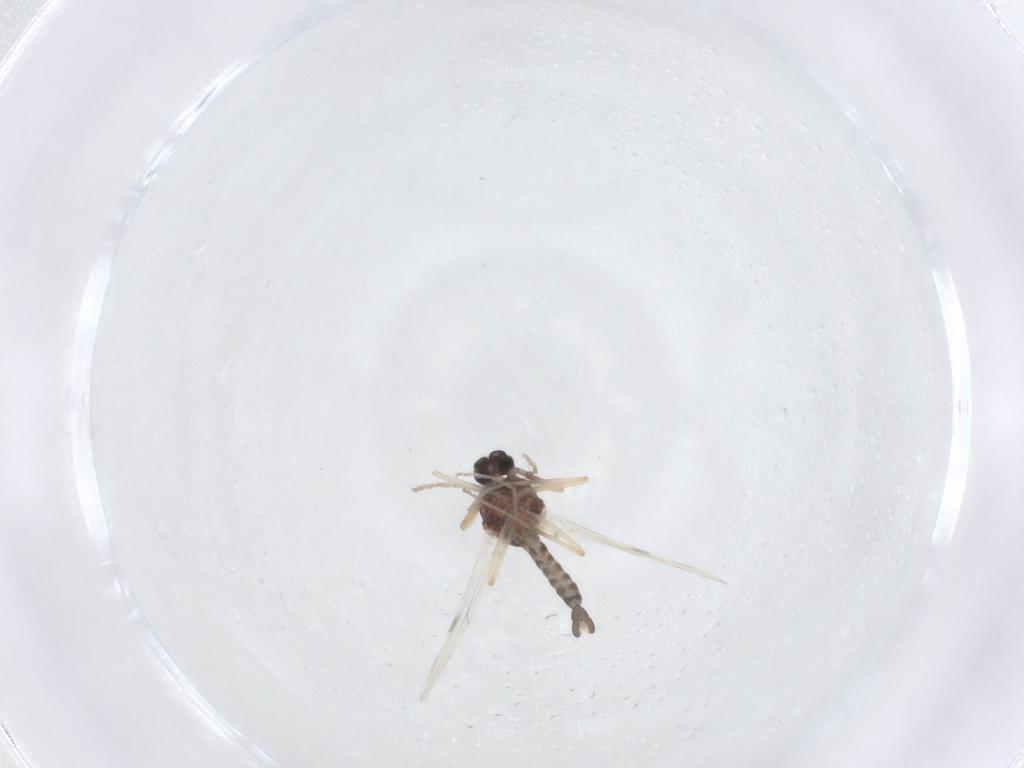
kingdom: Animalia
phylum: Arthropoda
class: Insecta
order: Diptera
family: Ceratopogonidae
